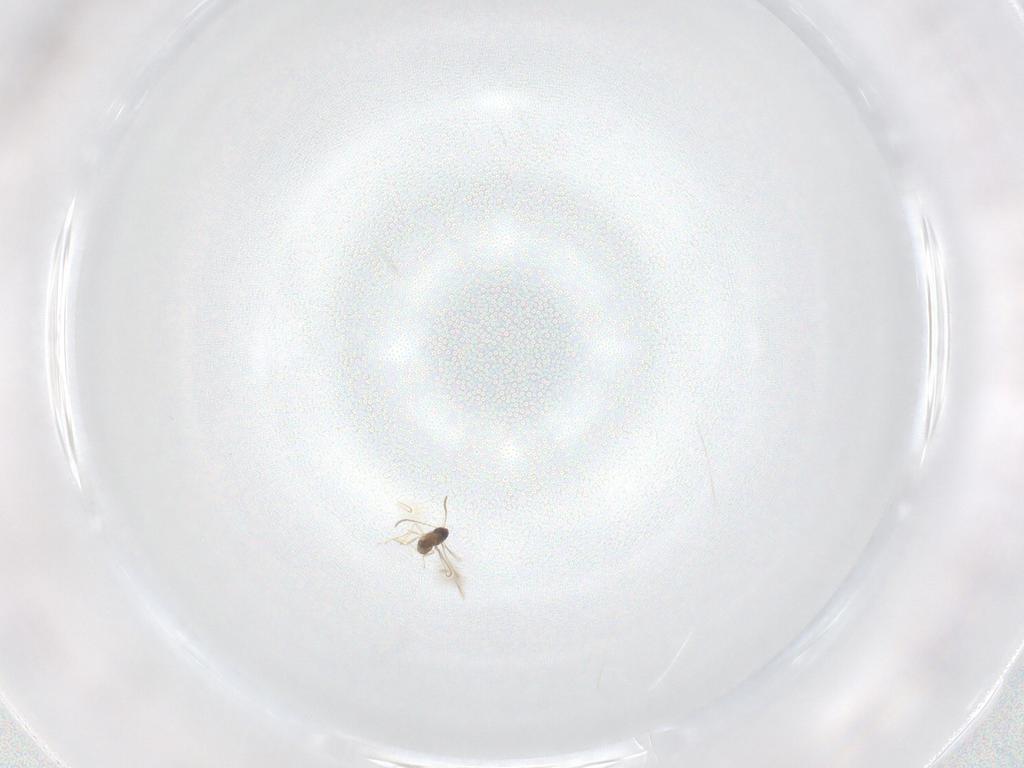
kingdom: Animalia
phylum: Arthropoda
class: Insecta
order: Hymenoptera
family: Mymaridae
